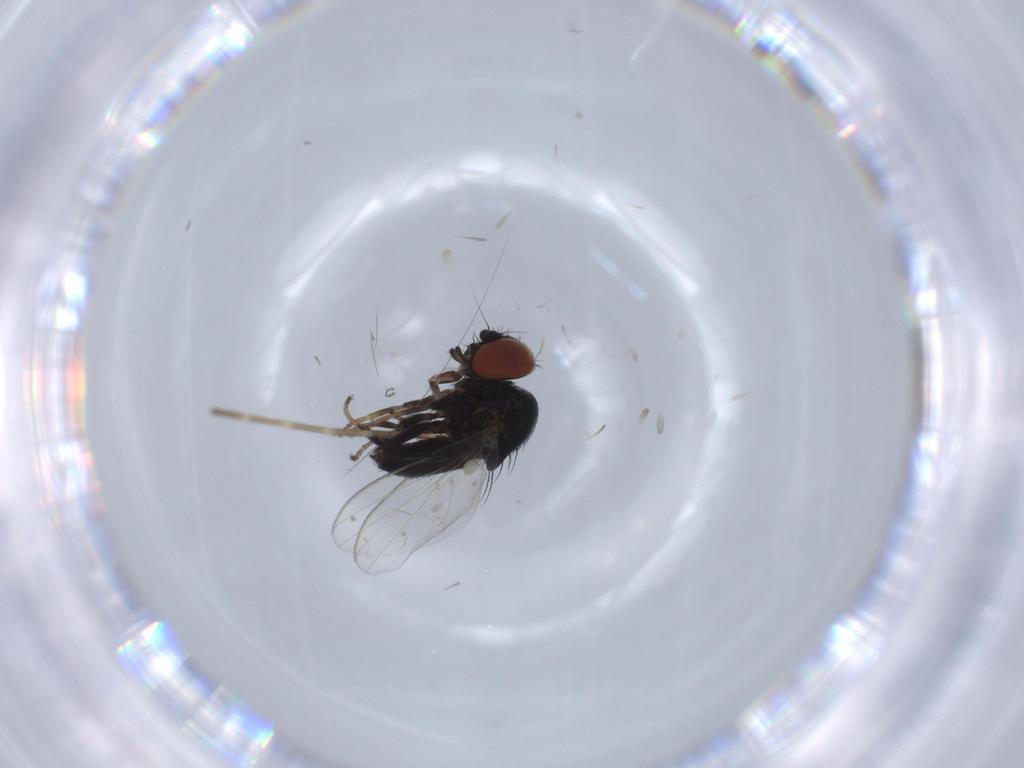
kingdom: Animalia
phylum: Arthropoda
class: Insecta
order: Diptera
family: Milichiidae
